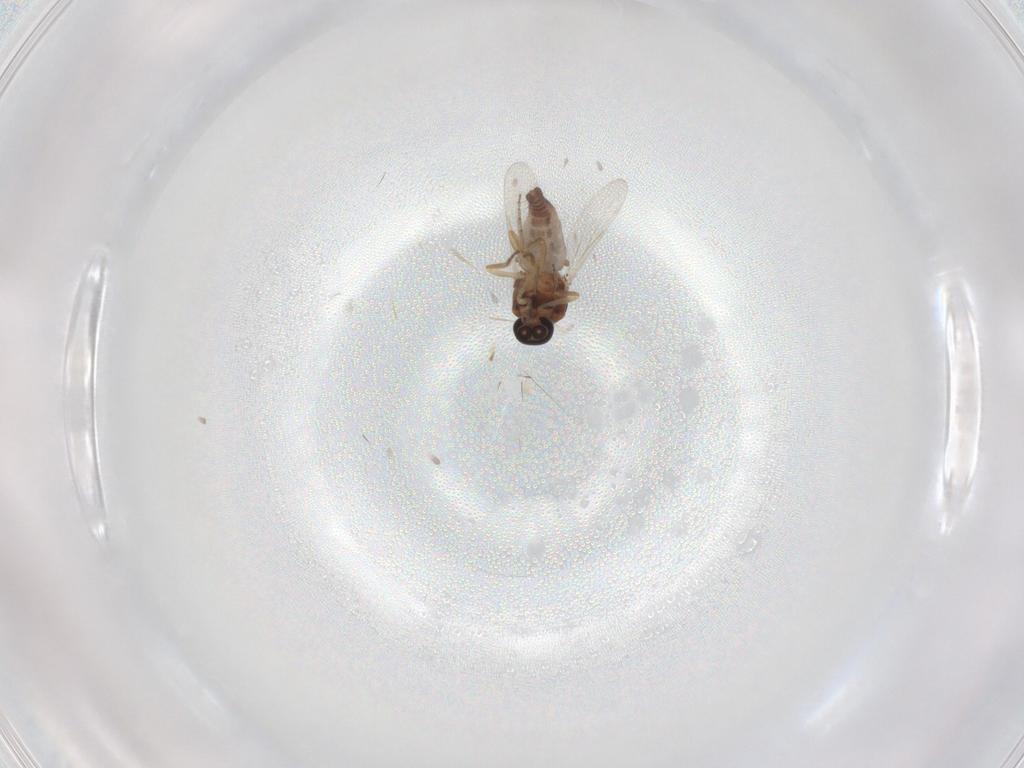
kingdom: Animalia
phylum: Arthropoda
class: Insecta
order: Diptera
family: Ceratopogonidae
